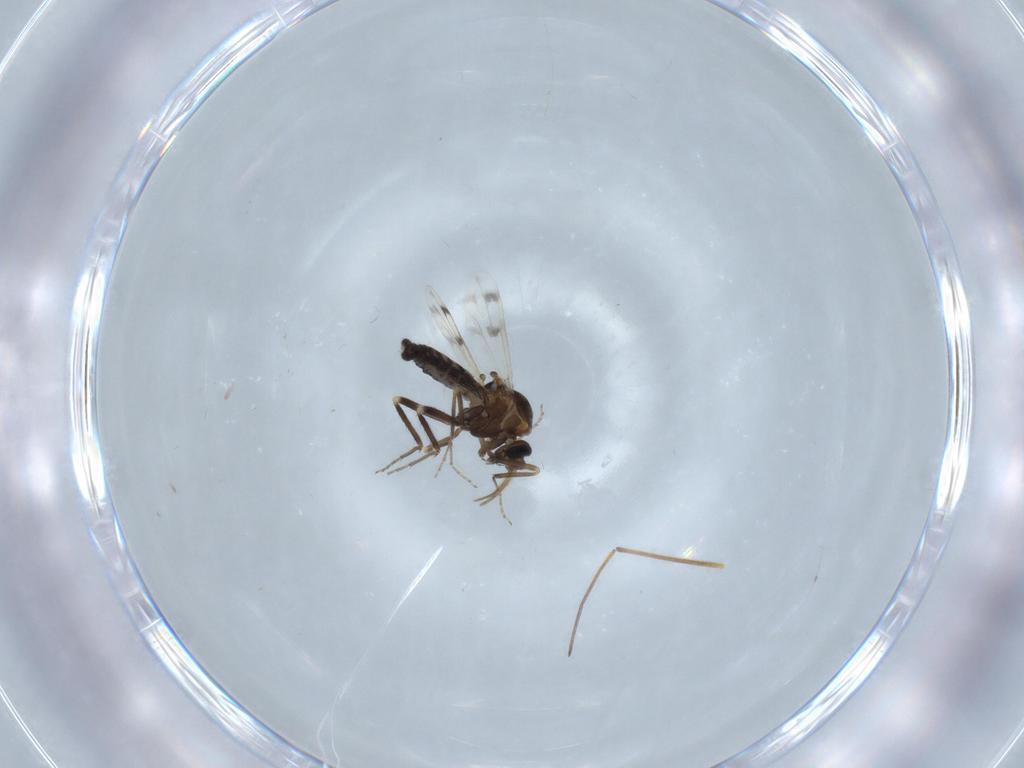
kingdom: Animalia
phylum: Arthropoda
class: Insecta
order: Diptera
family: Ceratopogonidae
